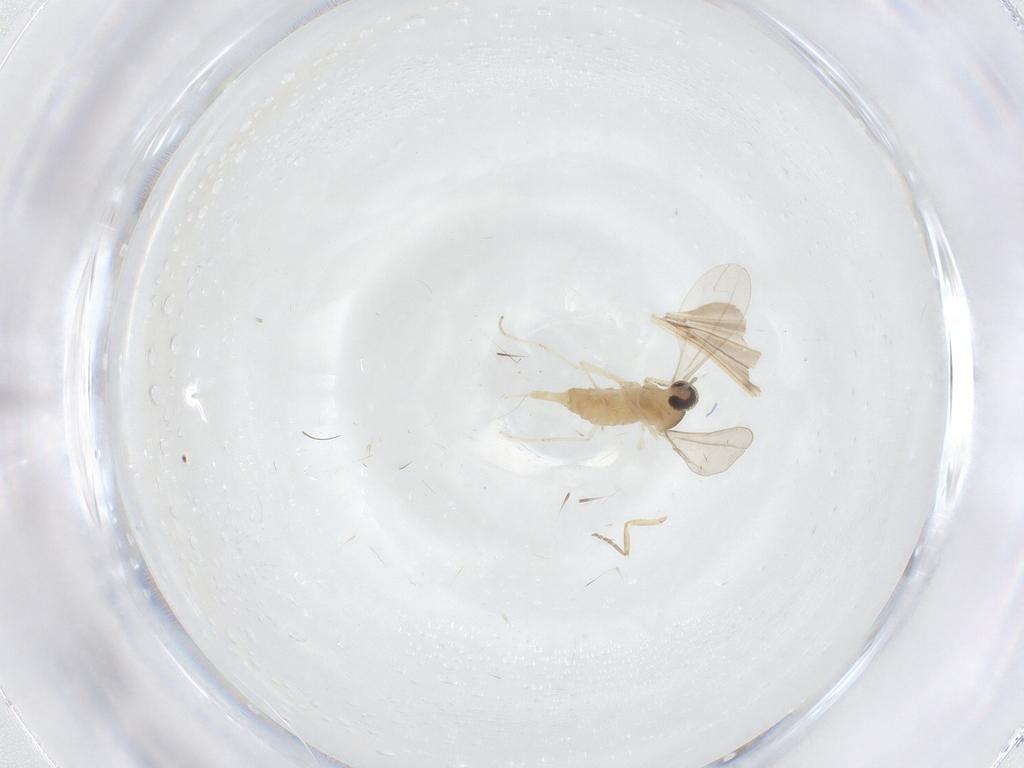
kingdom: Animalia
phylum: Arthropoda
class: Insecta
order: Diptera
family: Cecidomyiidae
